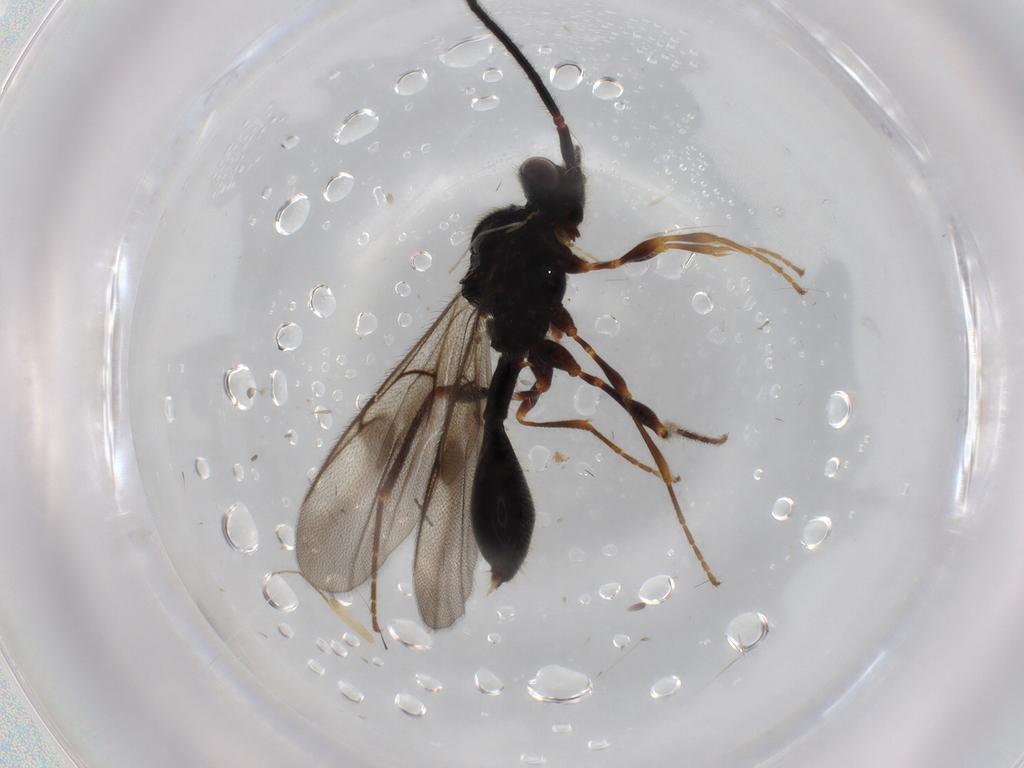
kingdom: Animalia
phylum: Arthropoda
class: Insecta
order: Hymenoptera
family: Diapriidae
